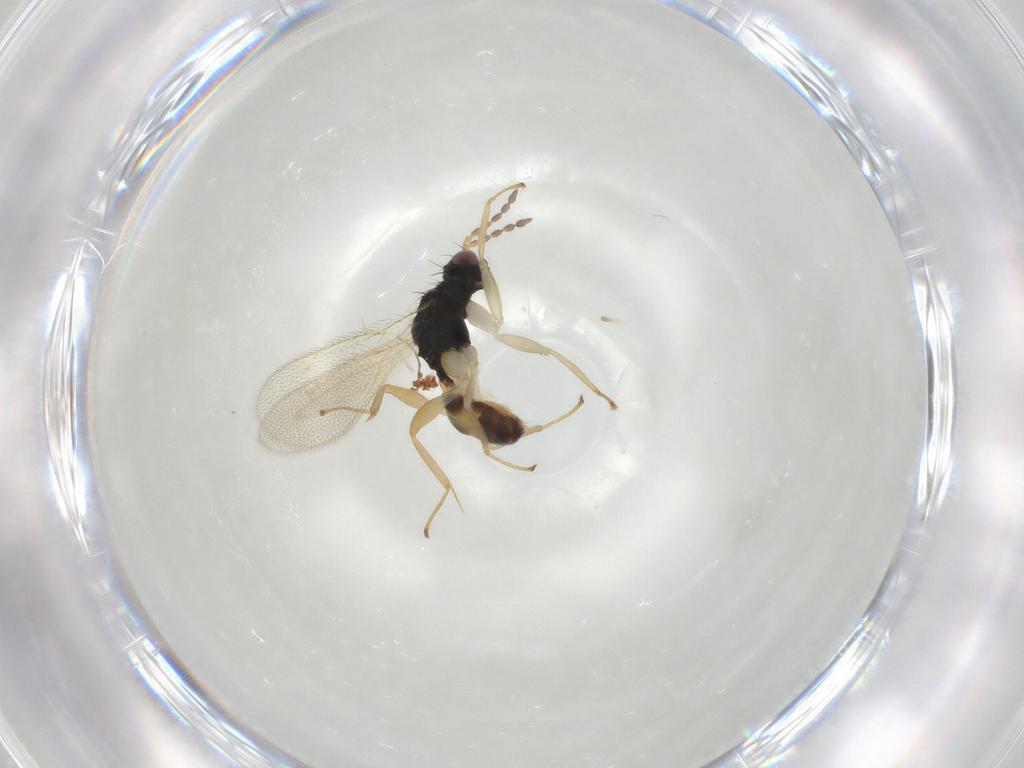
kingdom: Animalia
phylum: Arthropoda
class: Insecta
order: Hymenoptera
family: Eulophidae
